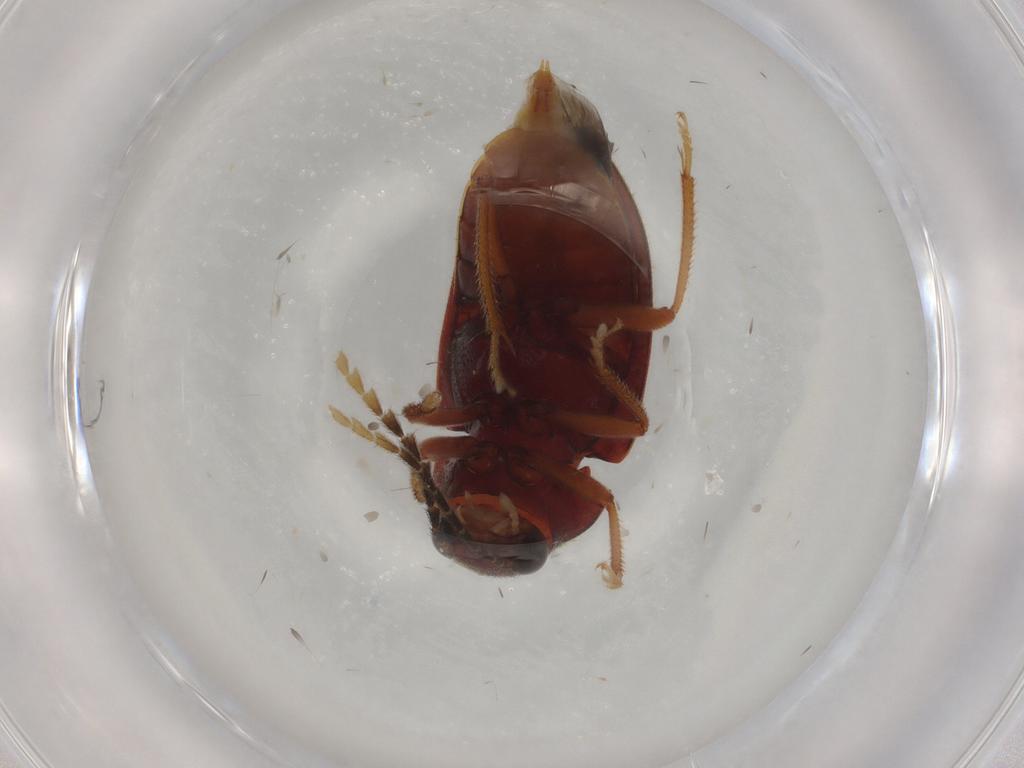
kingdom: Animalia
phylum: Arthropoda
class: Insecta
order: Coleoptera
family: Ptilodactylidae
